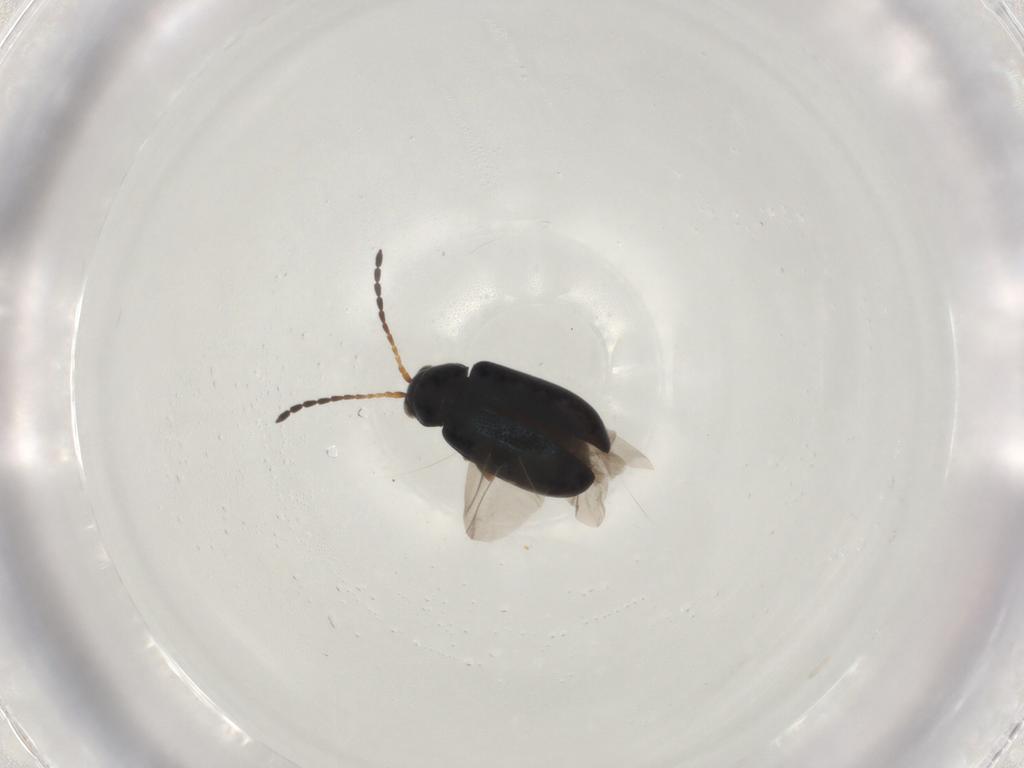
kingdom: Animalia
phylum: Arthropoda
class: Insecta
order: Coleoptera
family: Chrysomelidae
